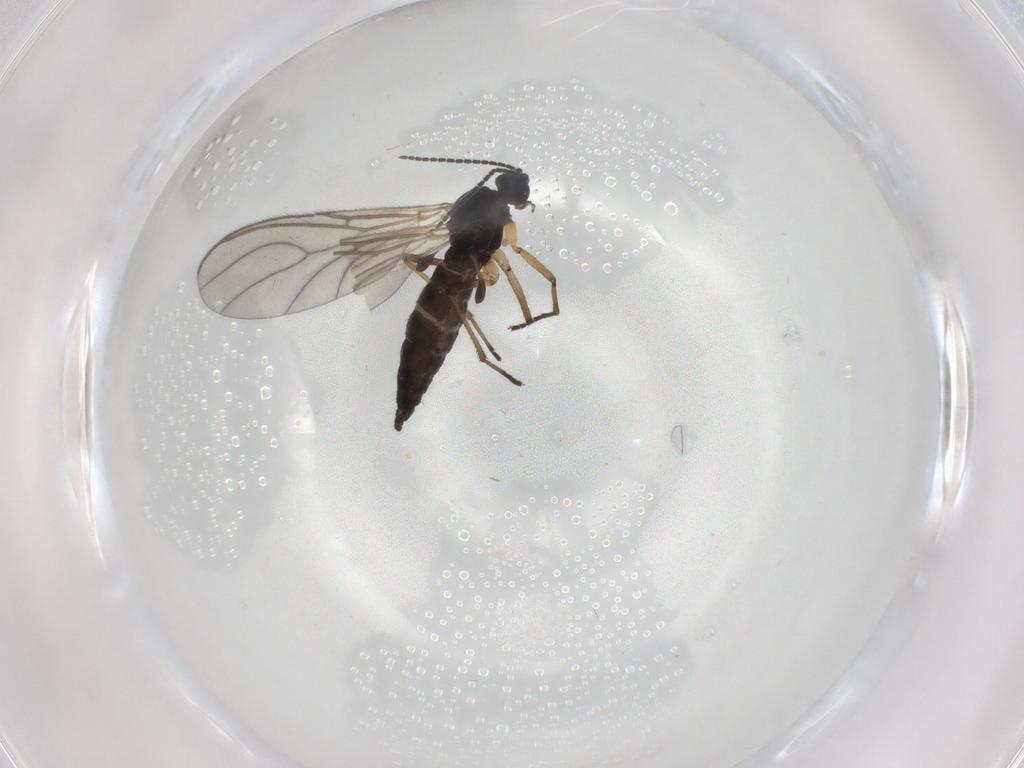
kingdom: Animalia
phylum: Arthropoda
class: Insecta
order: Diptera
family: Sciaridae
